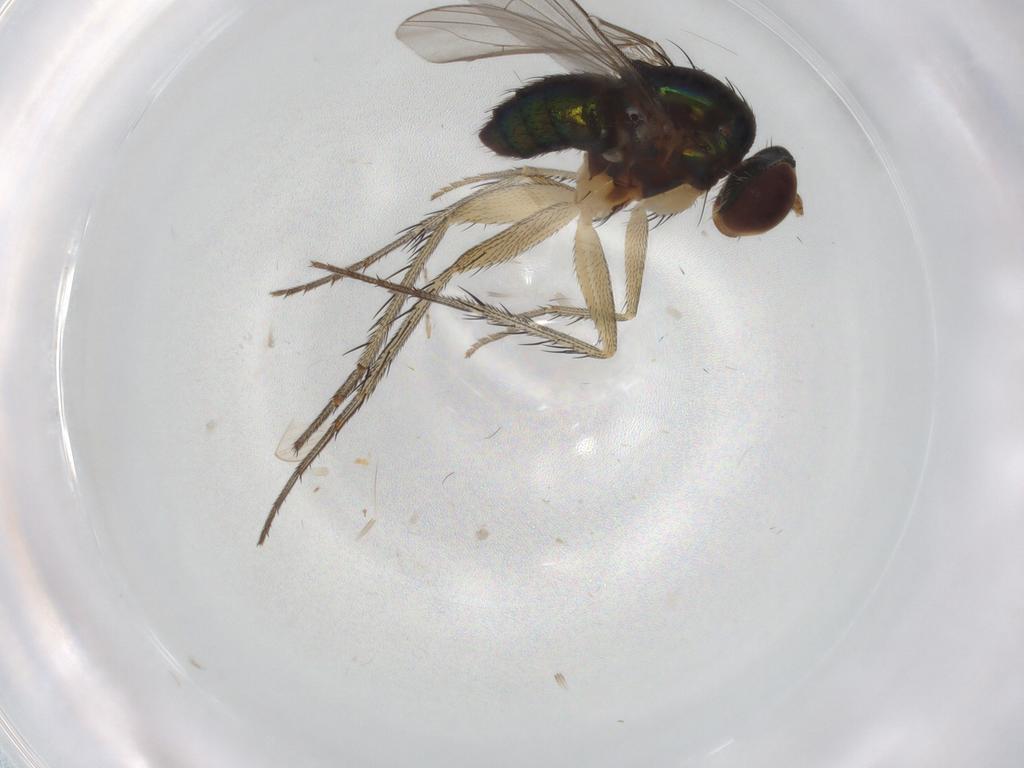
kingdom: Animalia
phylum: Arthropoda
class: Insecta
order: Diptera
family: Dolichopodidae
